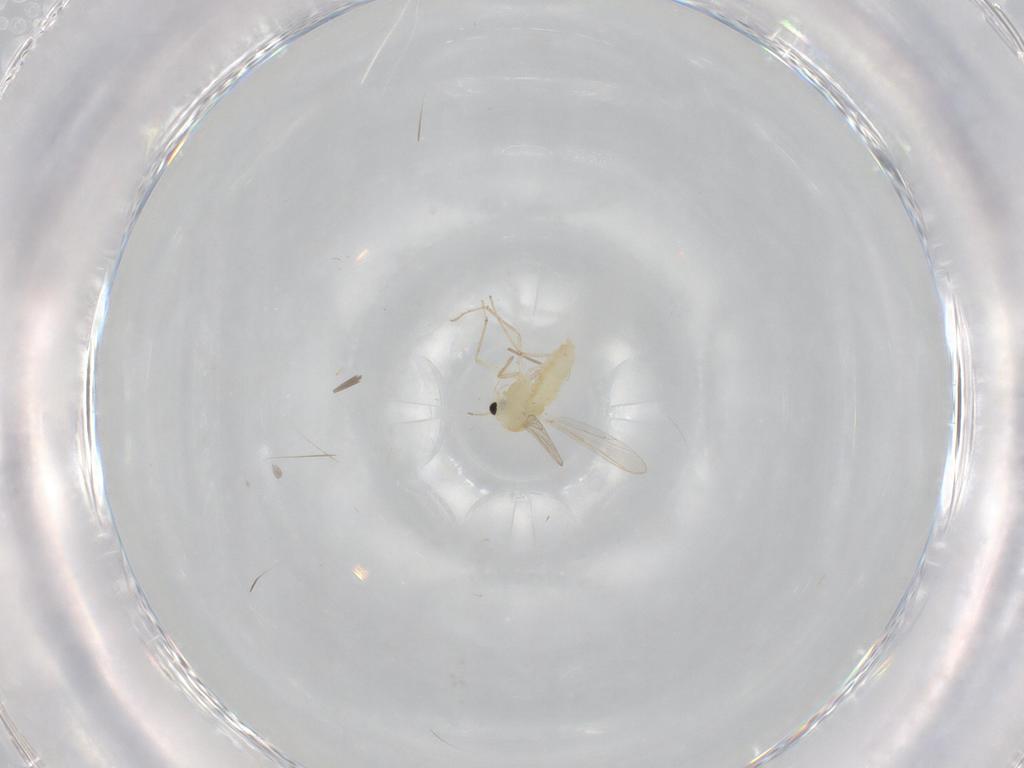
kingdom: Animalia
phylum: Arthropoda
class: Insecta
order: Diptera
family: Chironomidae
